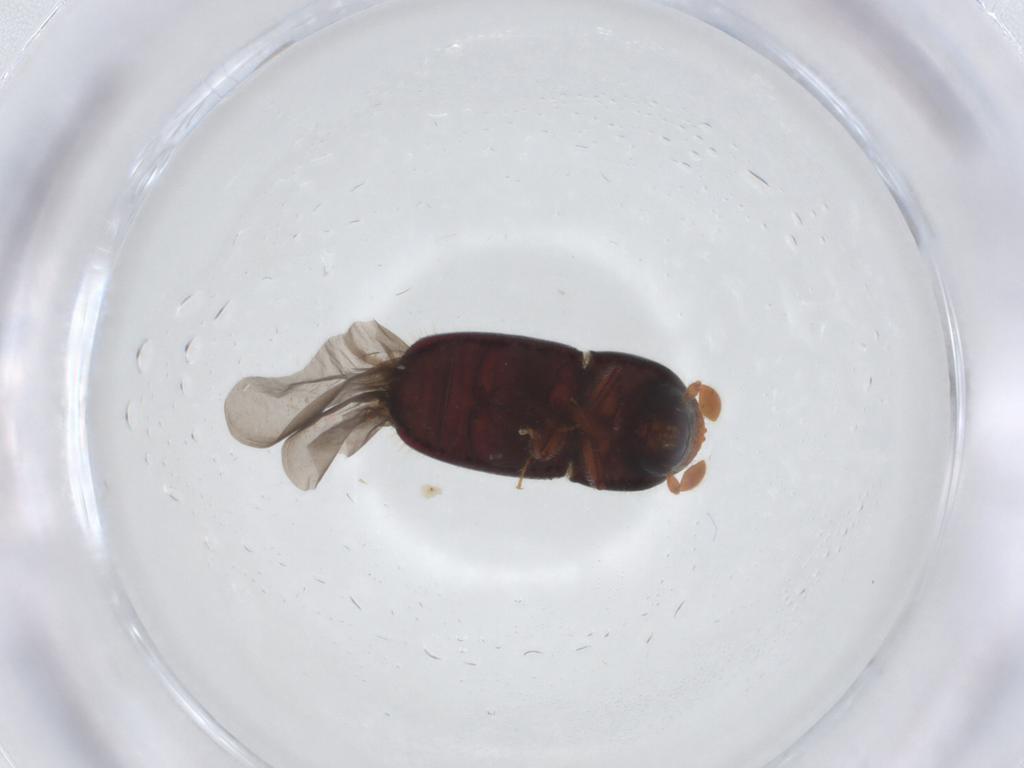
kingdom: Animalia
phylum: Arthropoda
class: Insecta
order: Coleoptera
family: Curculionidae
